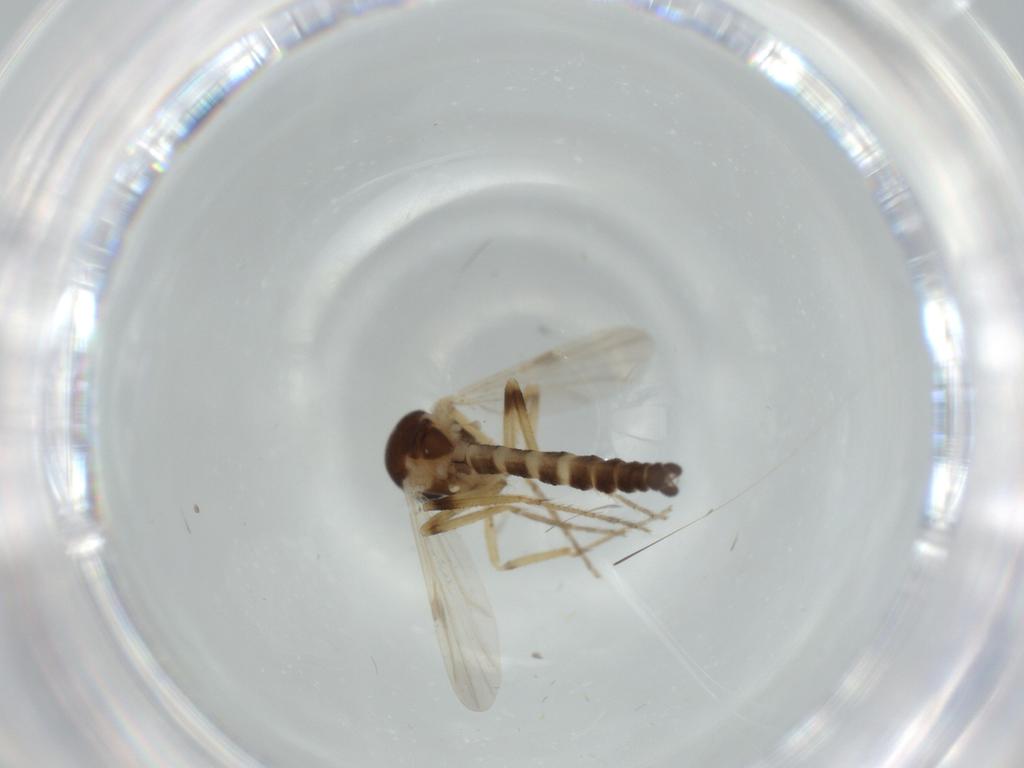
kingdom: Animalia
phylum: Arthropoda
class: Insecta
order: Diptera
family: Ceratopogonidae
